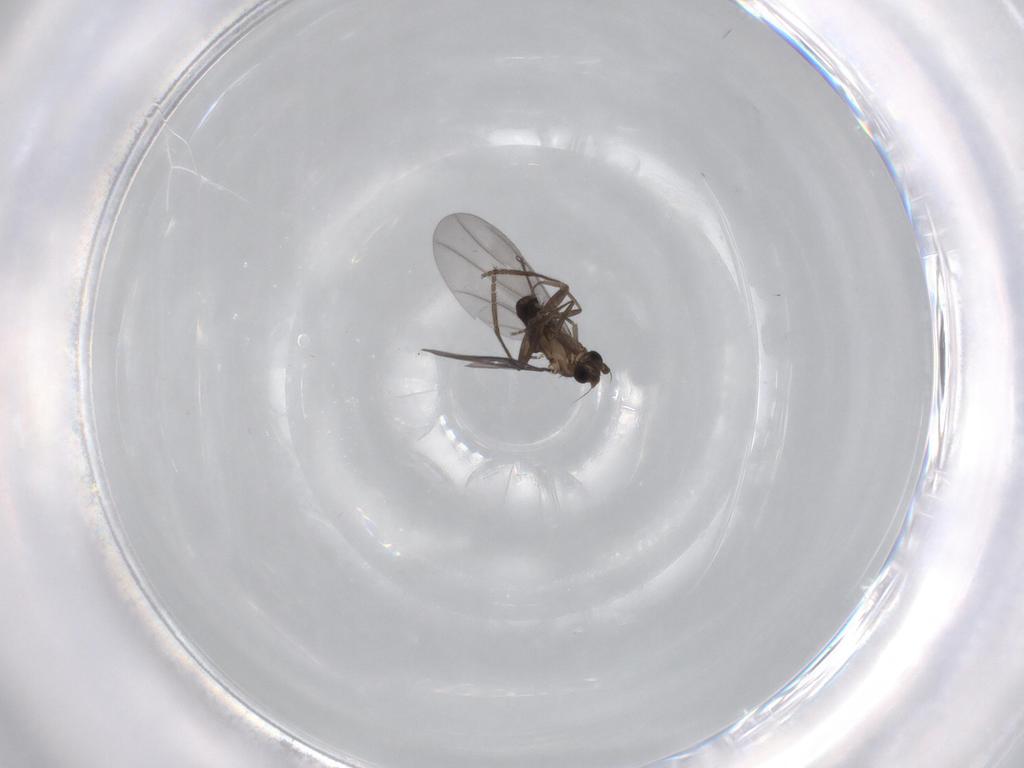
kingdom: Animalia
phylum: Arthropoda
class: Insecta
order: Diptera
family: Phoridae
